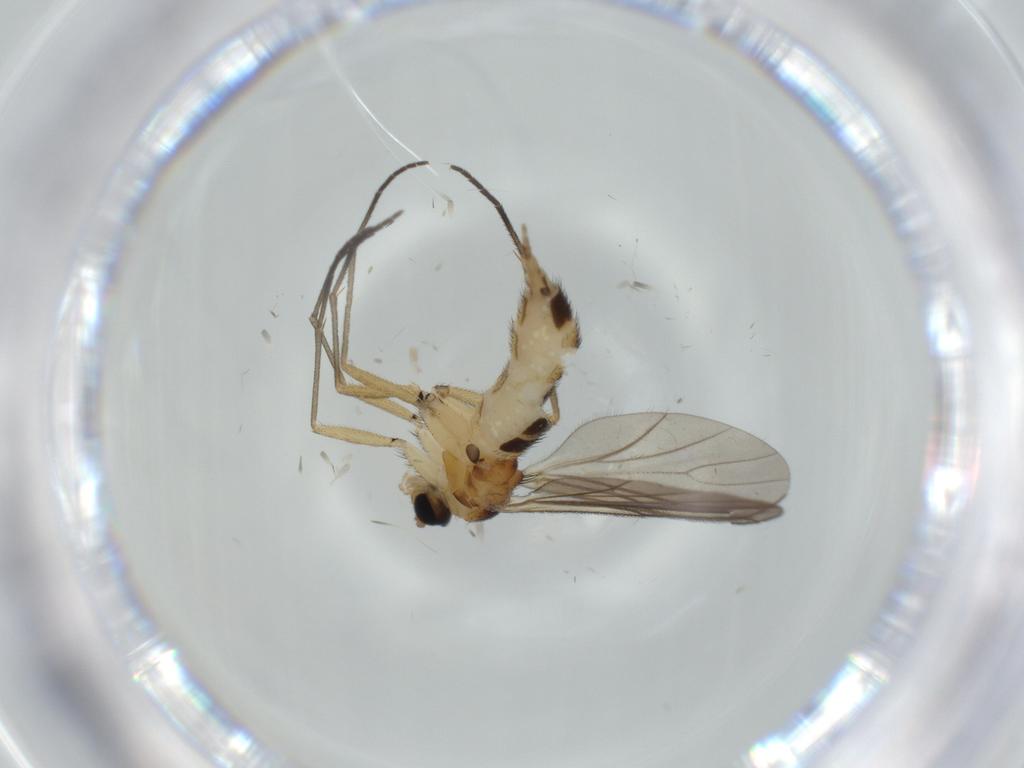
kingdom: Animalia
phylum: Arthropoda
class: Insecta
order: Diptera
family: Sciaridae
